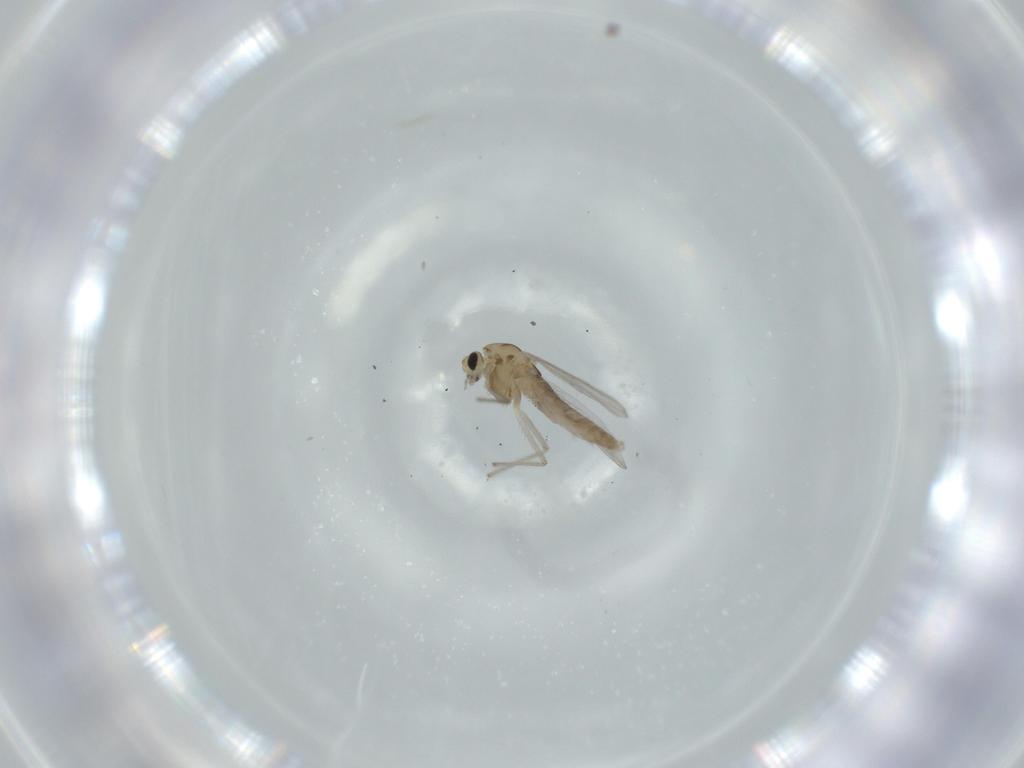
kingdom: Animalia
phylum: Arthropoda
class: Insecta
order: Diptera
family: Chironomidae
